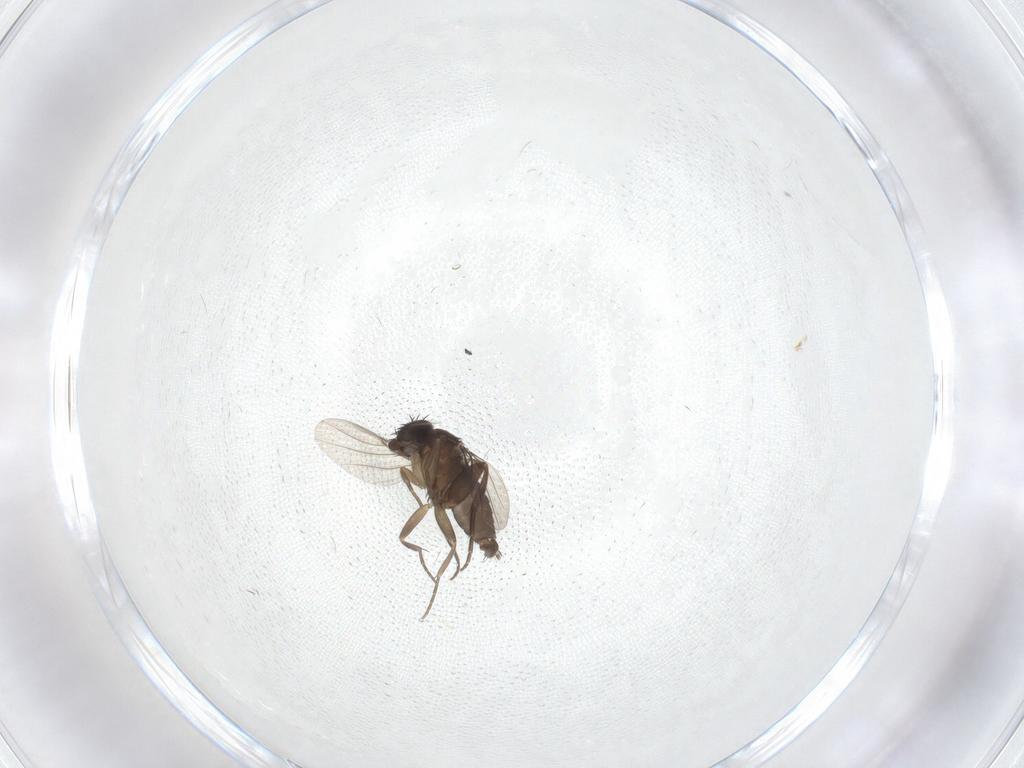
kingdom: Animalia
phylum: Arthropoda
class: Insecta
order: Diptera
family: Phoridae
